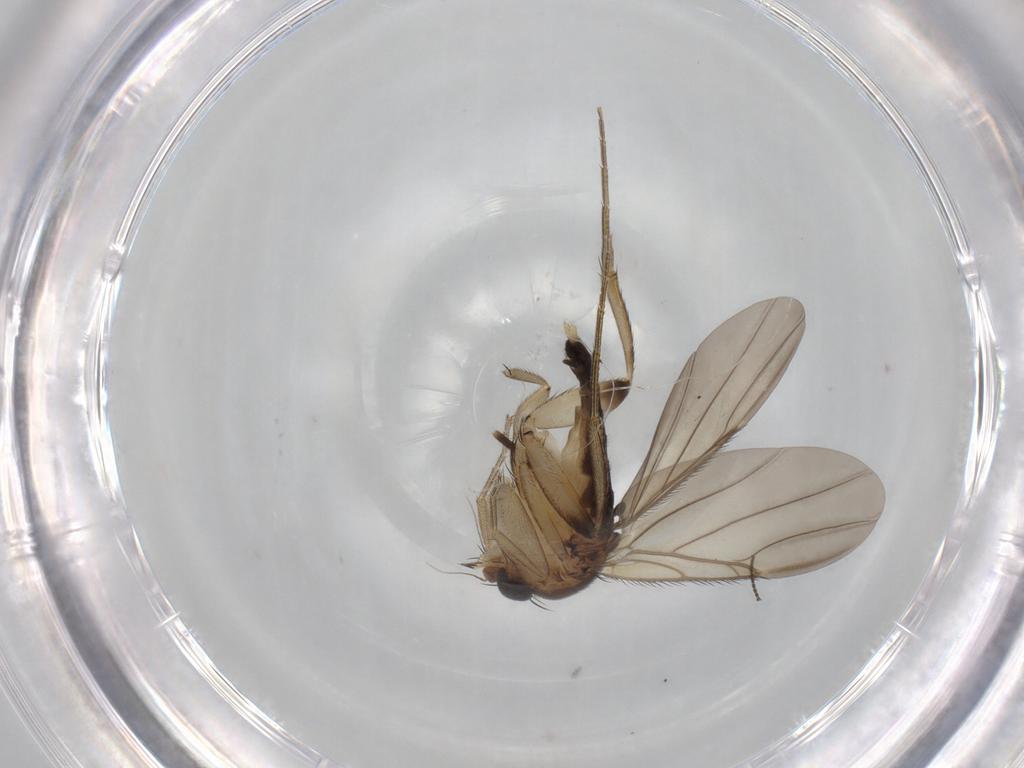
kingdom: Animalia
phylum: Arthropoda
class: Insecta
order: Diptera
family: Phoridae
